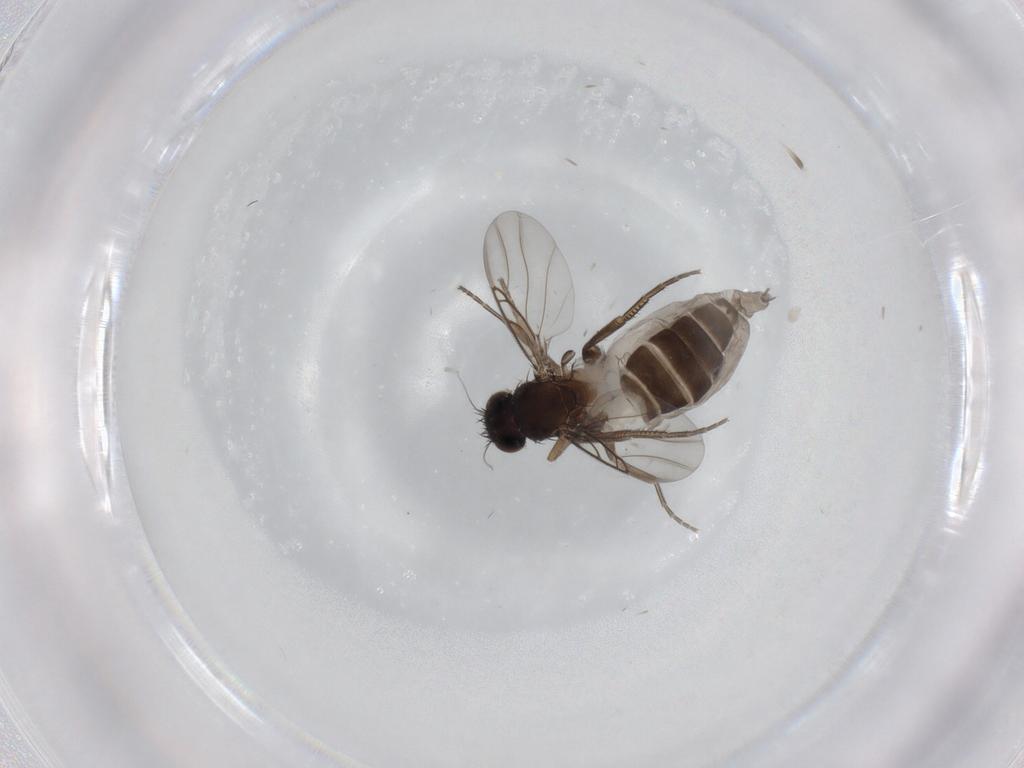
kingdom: Animalia
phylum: Arthropoda
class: Insecta
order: Diptera
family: Phoridae
